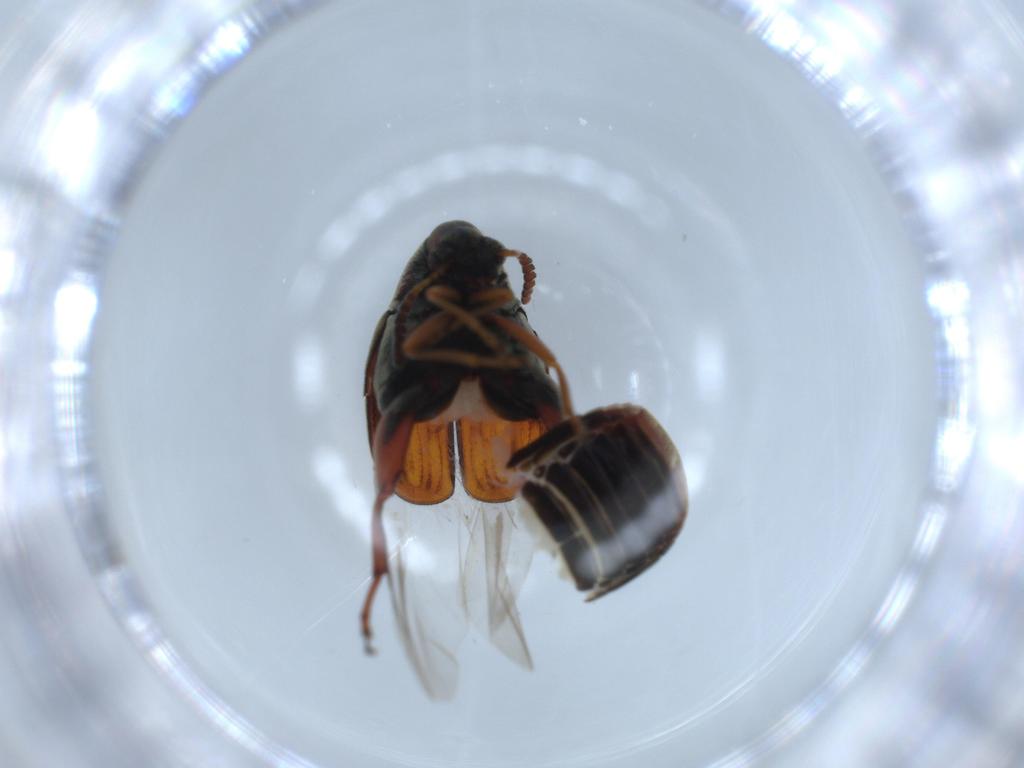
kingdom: Animalia
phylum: Arthropoda
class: Insecta
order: Coleoptera
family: Chrysomelidae
